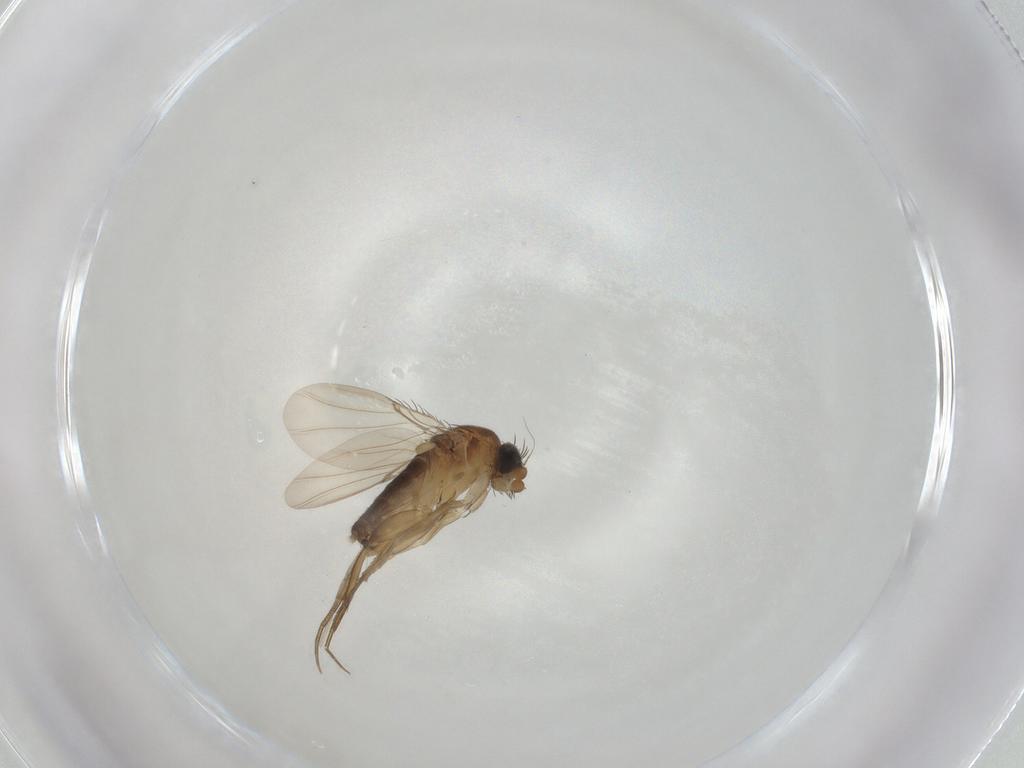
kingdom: Animalia
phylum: Arthropoda
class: Insecta
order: Diptera
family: Phoridae
